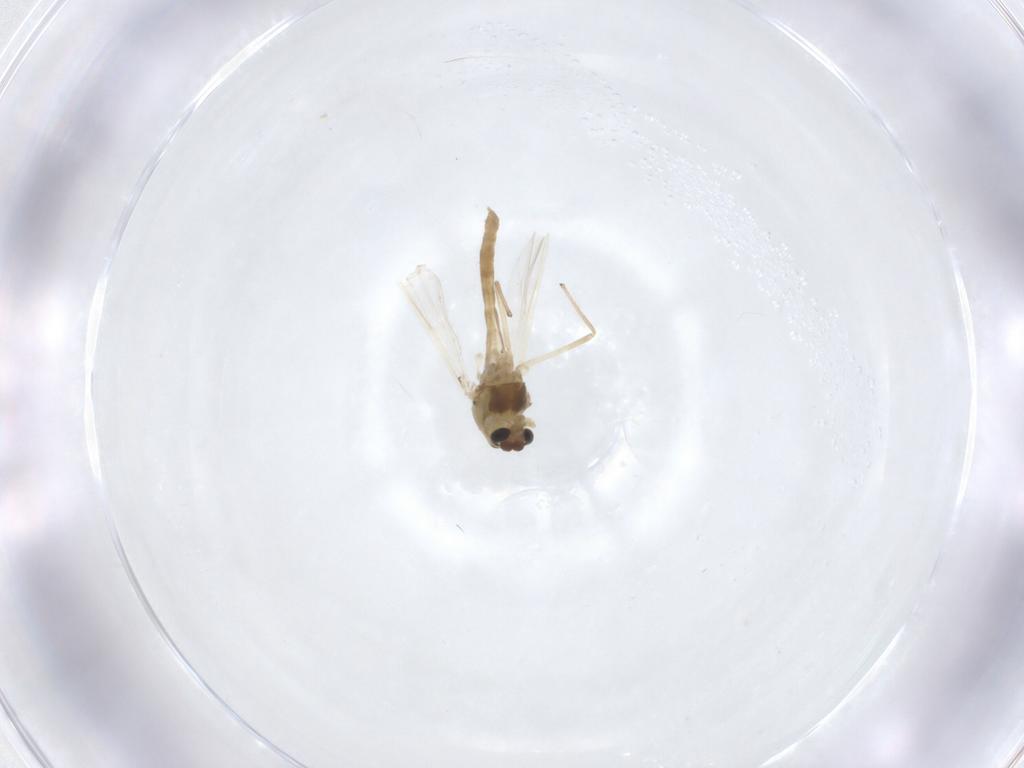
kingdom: Animalia
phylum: Arthropoda
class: Insecta
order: Diptera
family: Chironomidae
